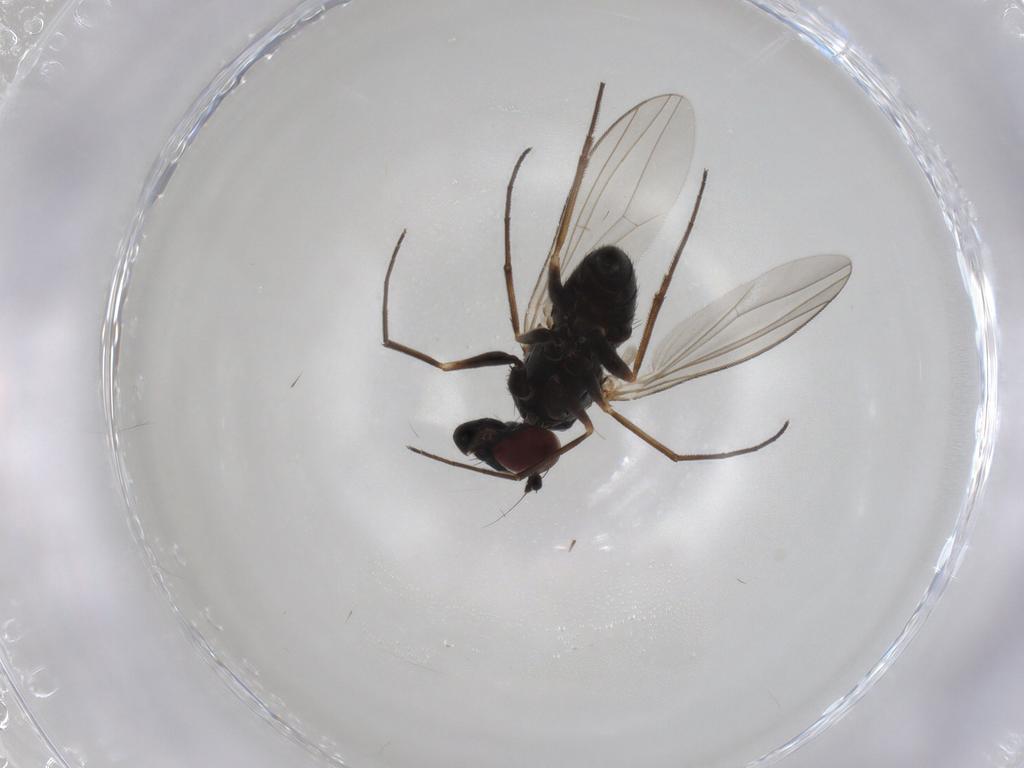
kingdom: Animalia
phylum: Arthropoda
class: Insecta
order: Diptera
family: Dolichopodidae
